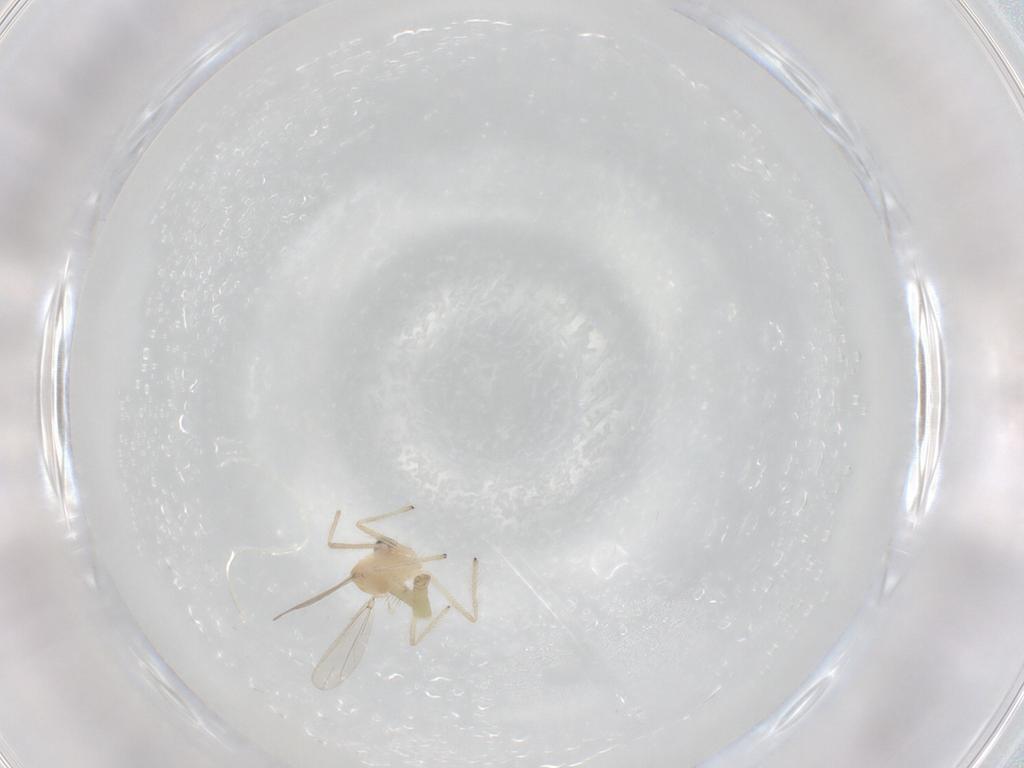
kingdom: Animalia
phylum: Arthropoda
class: Insecta
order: Diptera
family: Chironomidae
